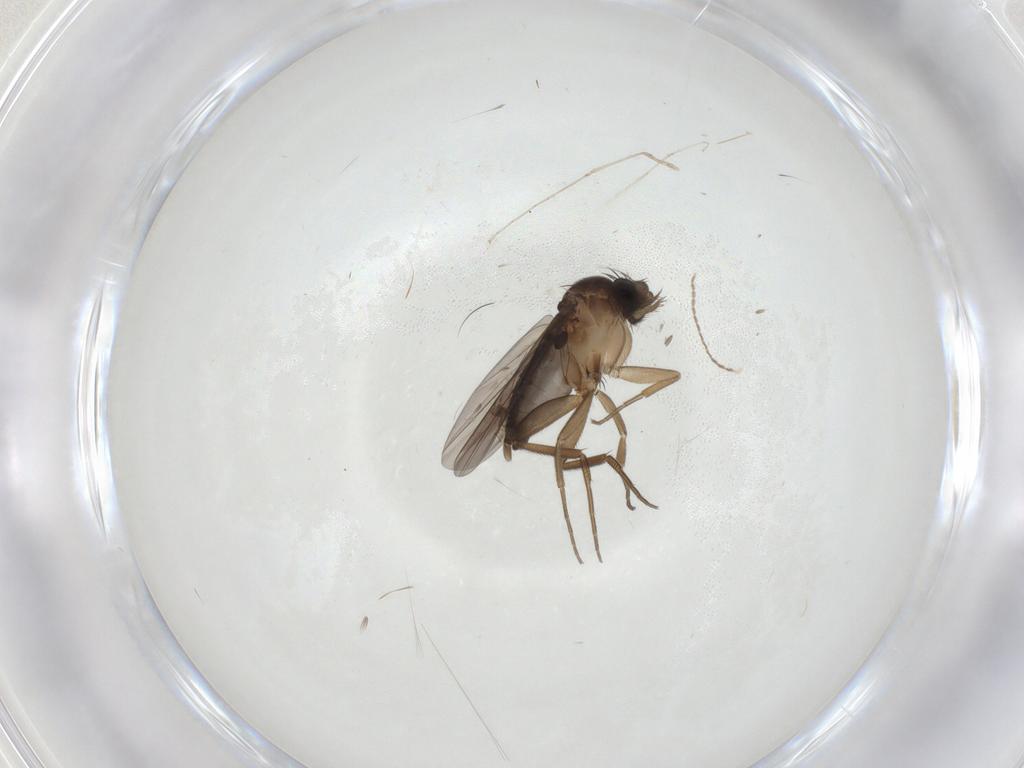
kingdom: Animalia
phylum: Arthropoda
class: Insecta
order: Diptera
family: Phoridae
